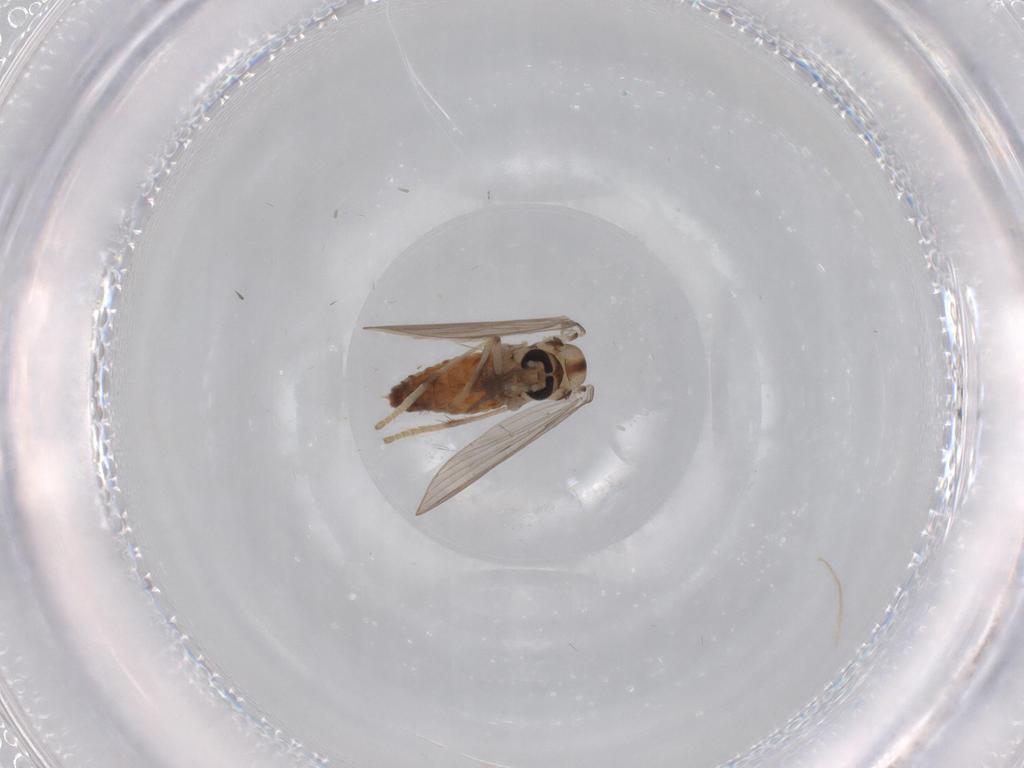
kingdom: Animalia
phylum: Arthropoda
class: Insecta
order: Diptera
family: Psychodidae
